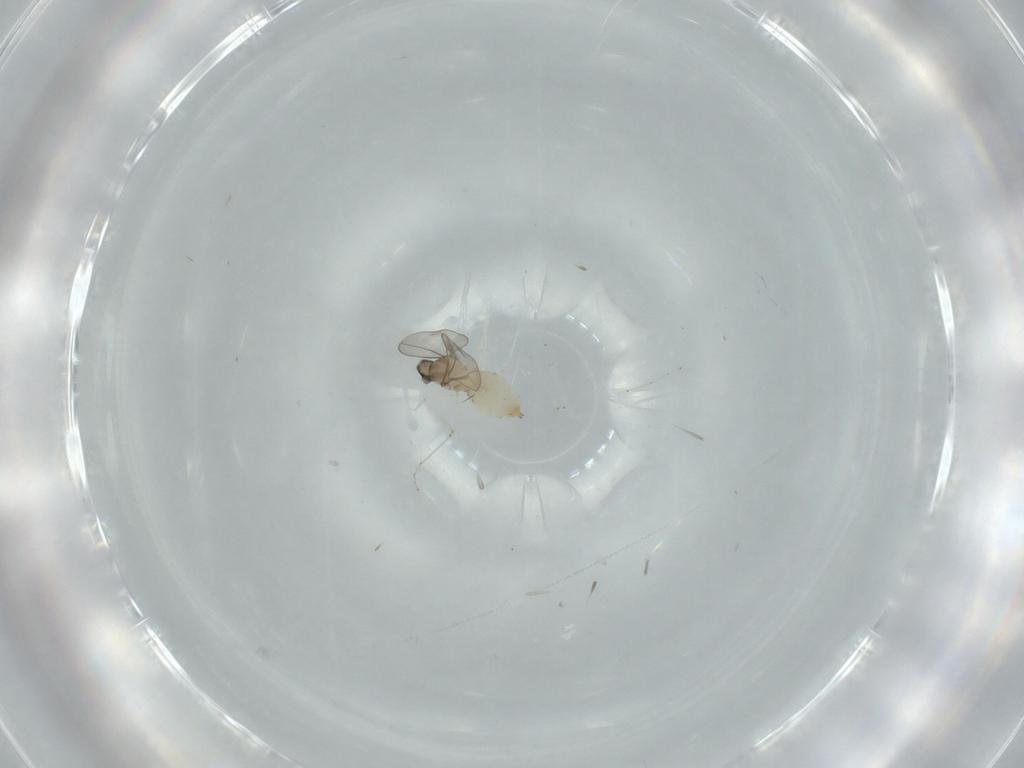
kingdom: Animalia
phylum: Arthropoda
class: Insecta
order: Diptera
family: Cecidomyiidae
